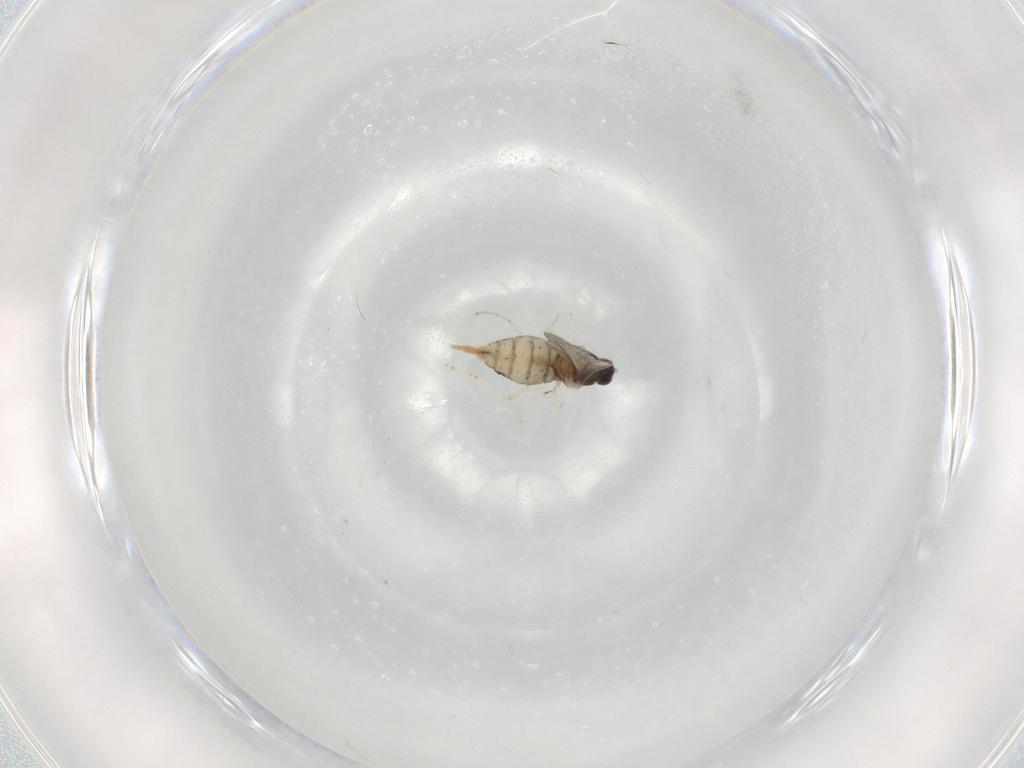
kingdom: Animalia
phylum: Arthropoda
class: Insecta
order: Diptera
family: Cecidomyiidae
